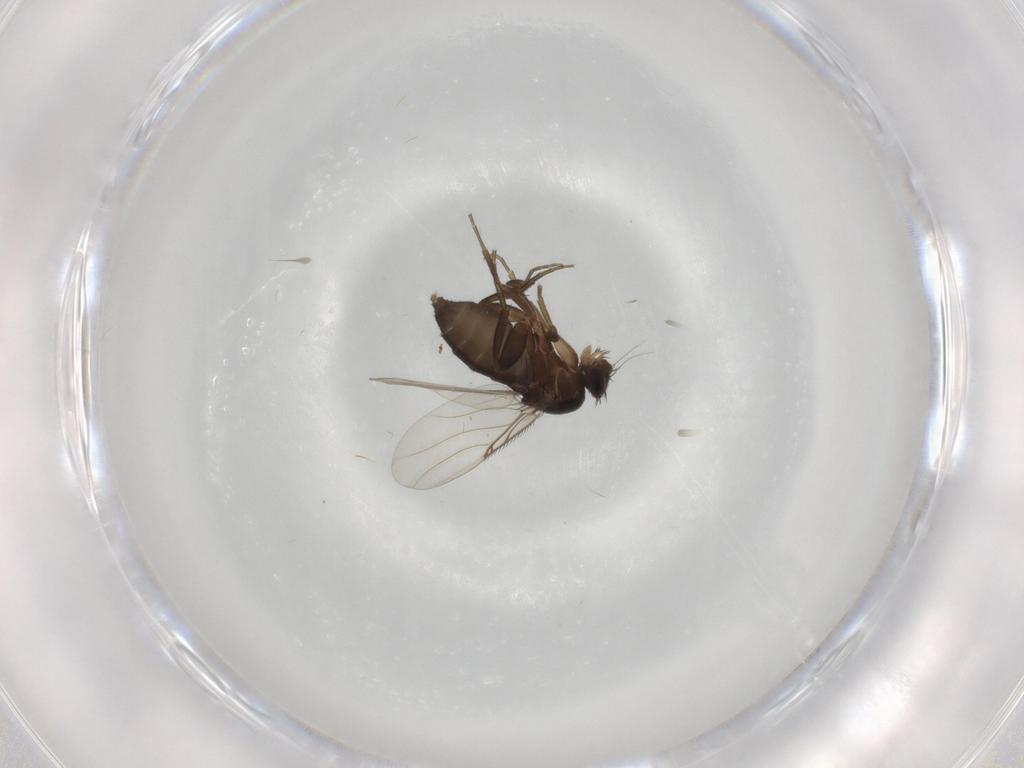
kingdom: Animalia
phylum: Arthropoda
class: Insecta
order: Diptera
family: Phoridae
